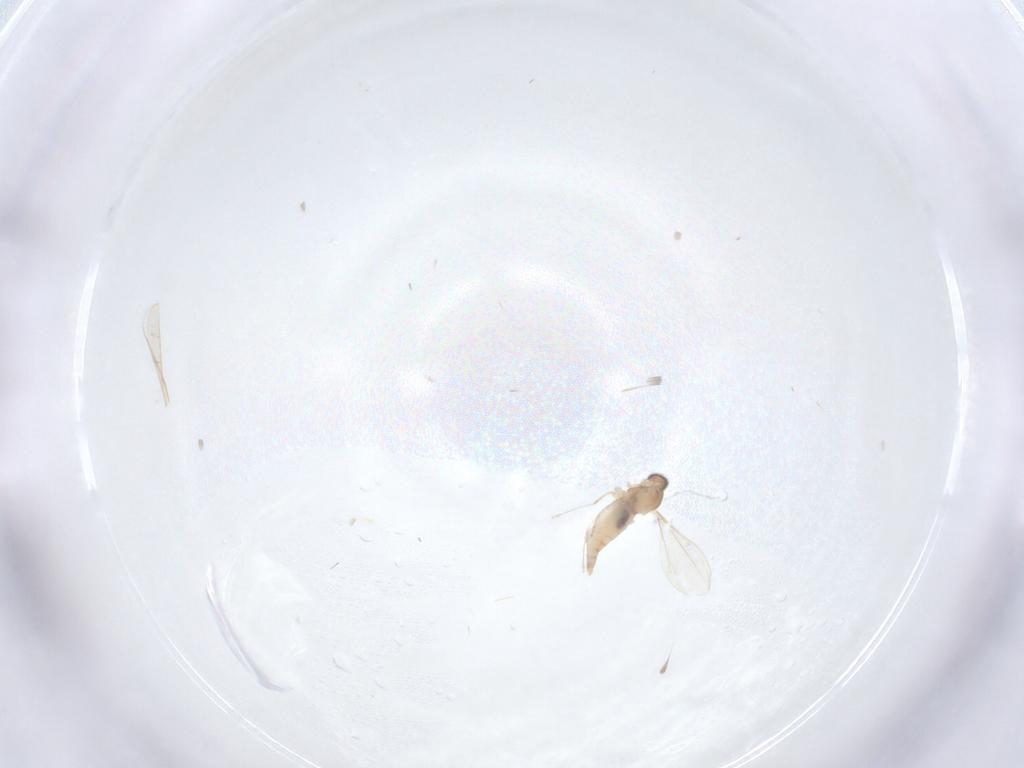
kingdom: Animalia
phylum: Arthropoda
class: Insecta
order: Diptera
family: Cecidomyiidae
